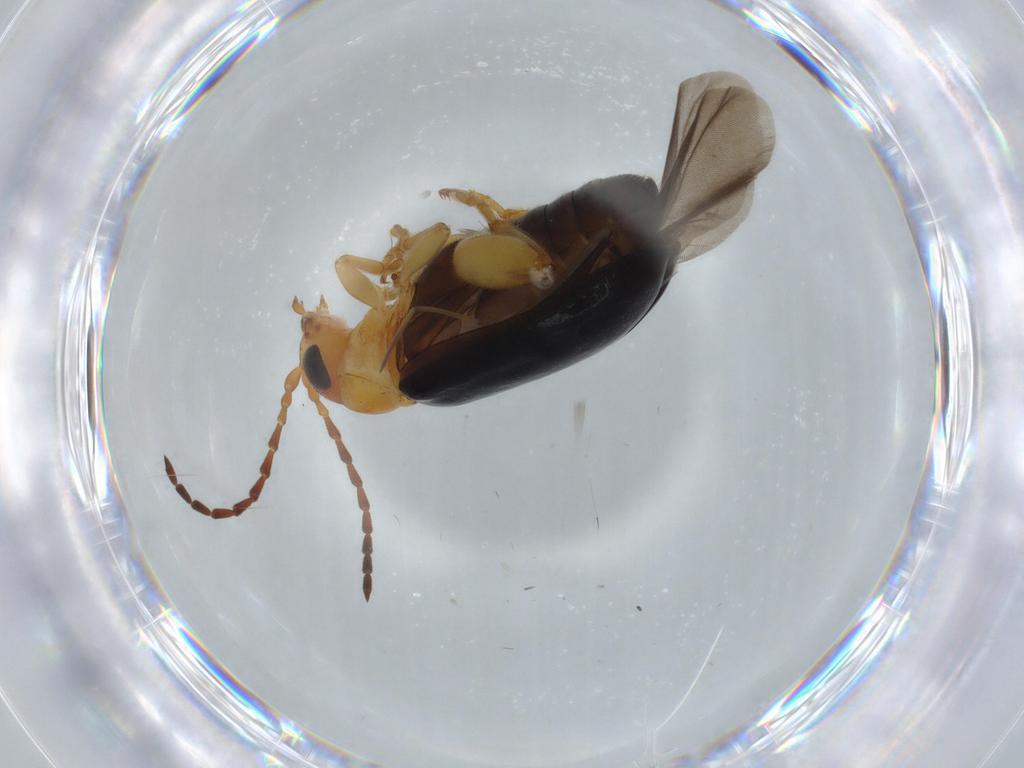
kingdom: Animalia
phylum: Arthropoda
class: Insecta
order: Coleoptera
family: Chrysomelidae
